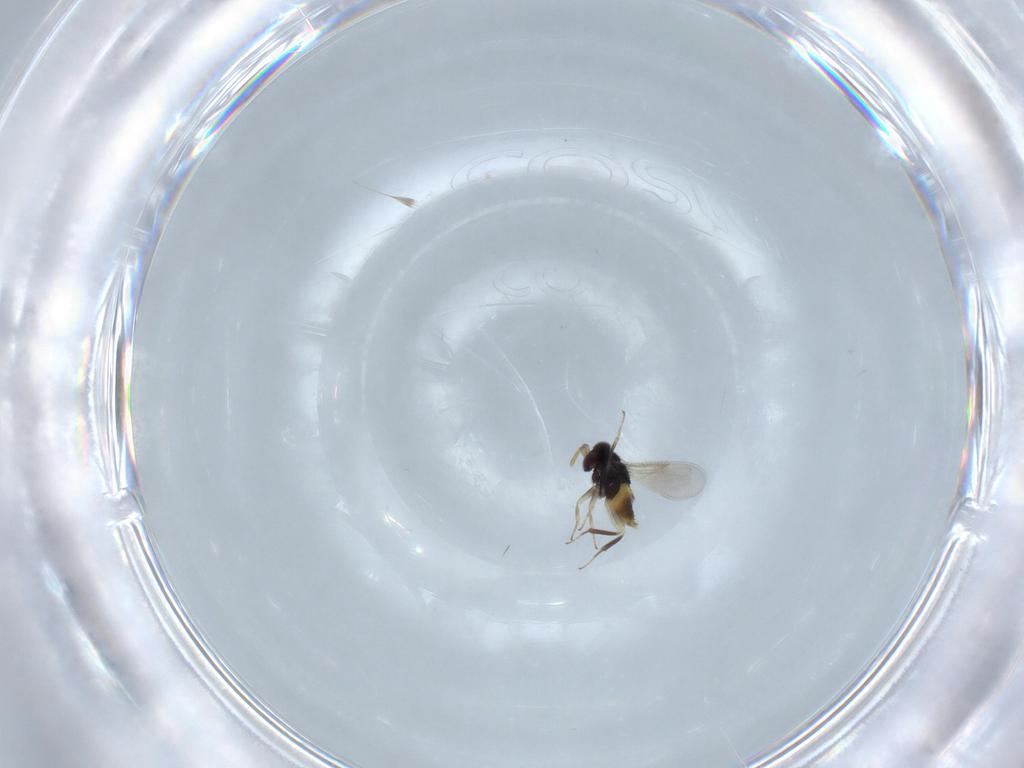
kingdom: Animalia
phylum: Arthropoda
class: Insecta
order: Hymenoptera
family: Aphelinidae
